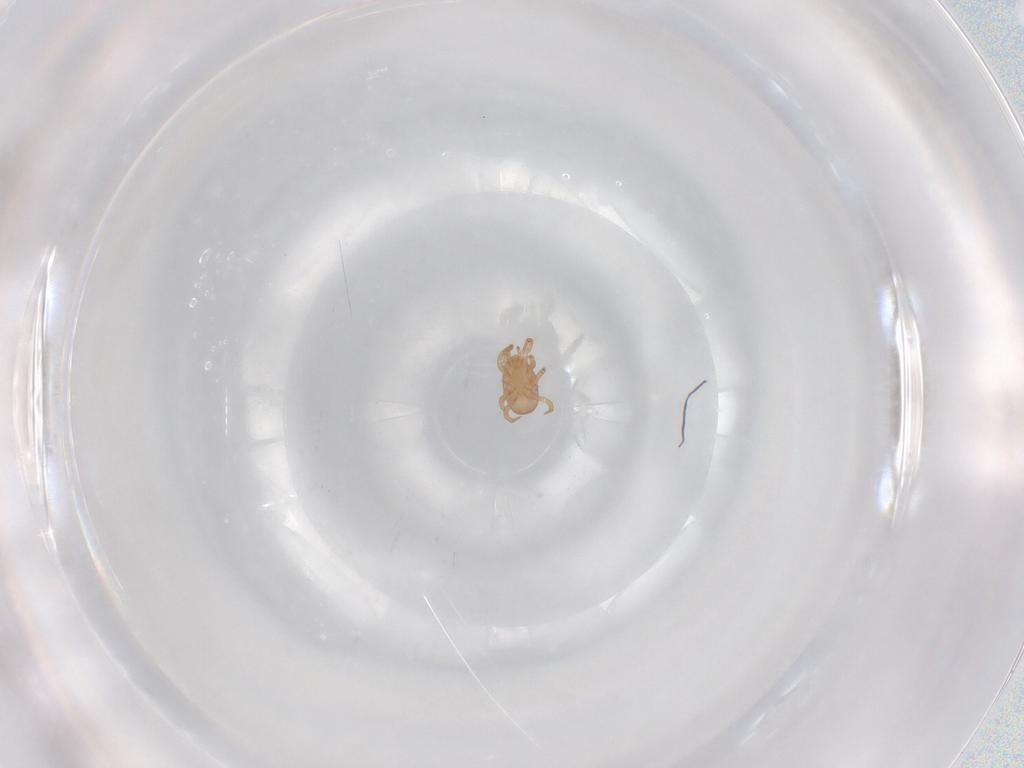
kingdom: Animalia
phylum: Arthropoda
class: Arachnida
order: Mesostigmata
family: Eviphididae
